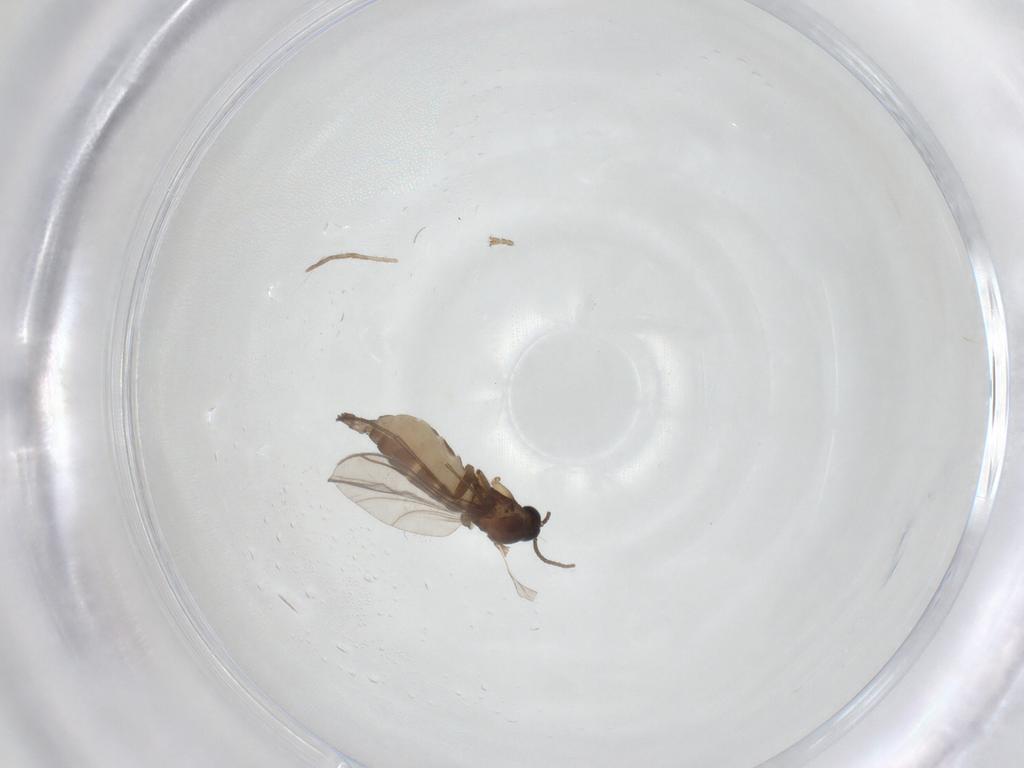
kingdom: Animalia
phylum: Arthropoda
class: Insecta
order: Diptera
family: Sciaridae
